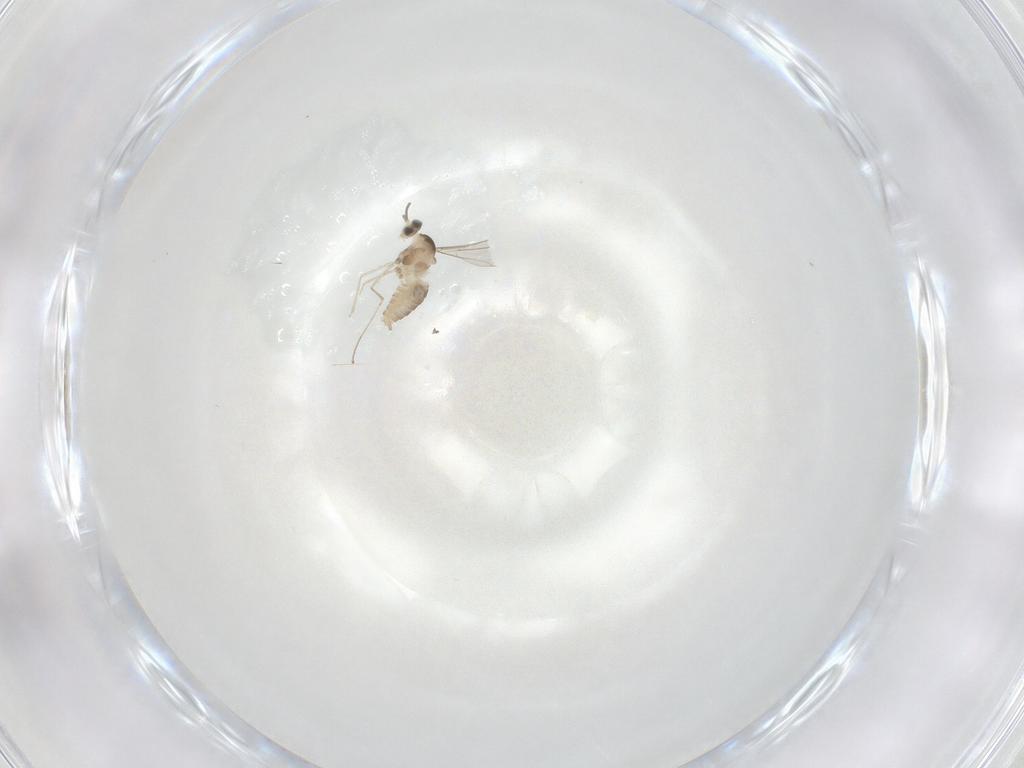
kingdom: Animalia
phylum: Arthropoda
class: Insecta
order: Diptera
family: Cecidomyiidae
